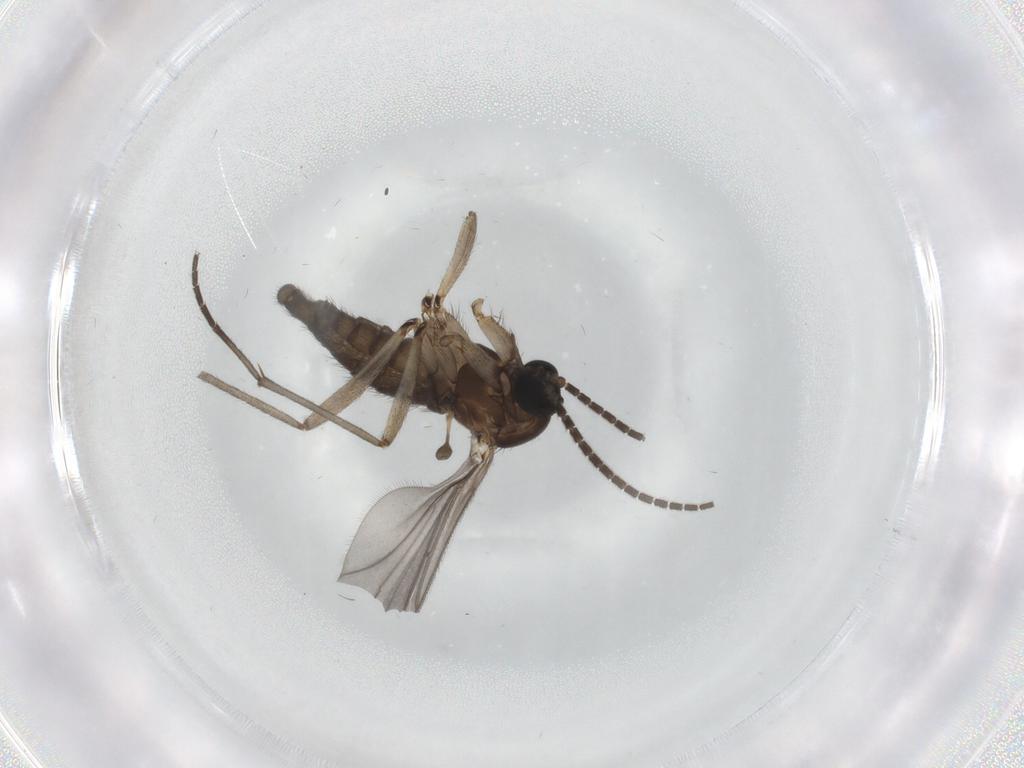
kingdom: Animalia
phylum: Arthropoda
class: Insecta
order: Diptera
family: Sciaridae
